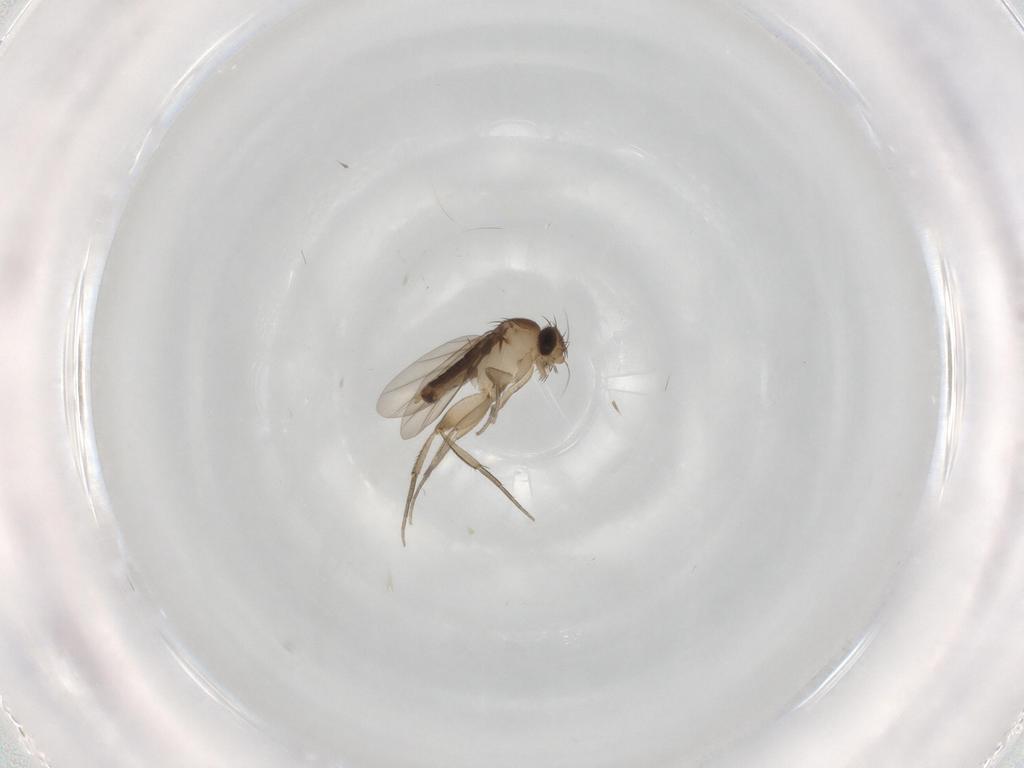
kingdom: Animalia
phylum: Arthropoda
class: Insecta
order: Diptera
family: Phoridae
